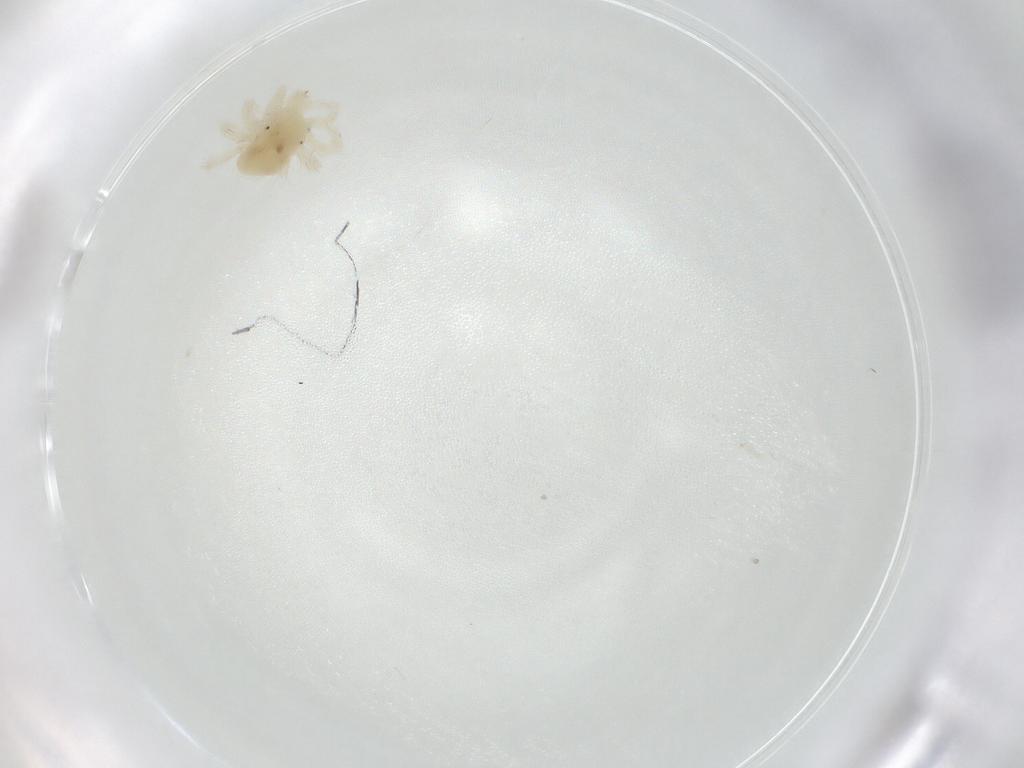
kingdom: Animalia
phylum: Arthropoda
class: Arachnida
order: Trombidiformes
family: Anystidae
